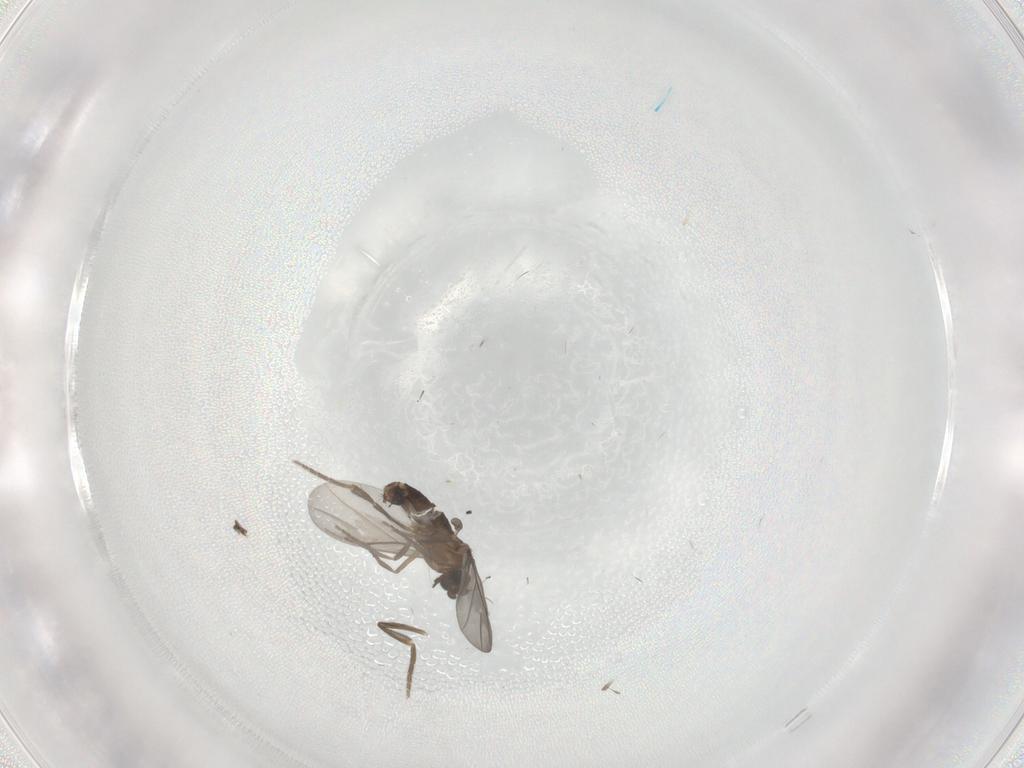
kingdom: Animalia
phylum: Arthropoda
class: Insecta
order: Diptera
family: Phoridae
